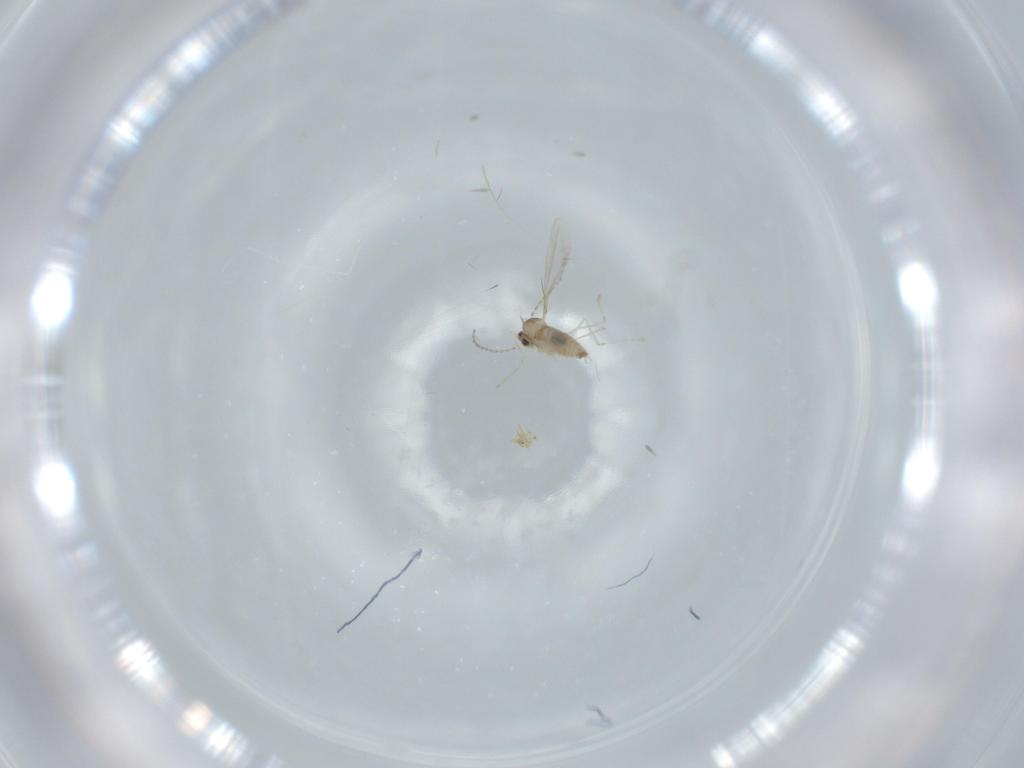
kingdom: Animalia
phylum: Arthropoda
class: Insecta
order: Diptera
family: Cecidomyiidae
